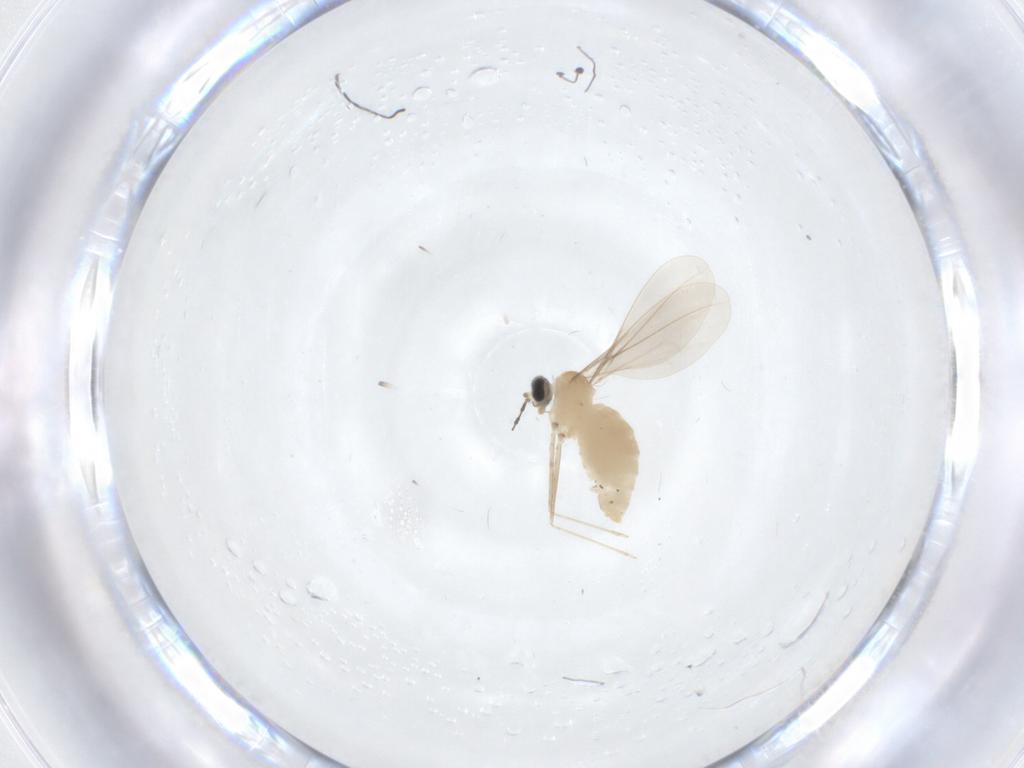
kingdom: Animalia
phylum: Arthropoda
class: Insecta
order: Diptera
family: Cecidomyiidae
